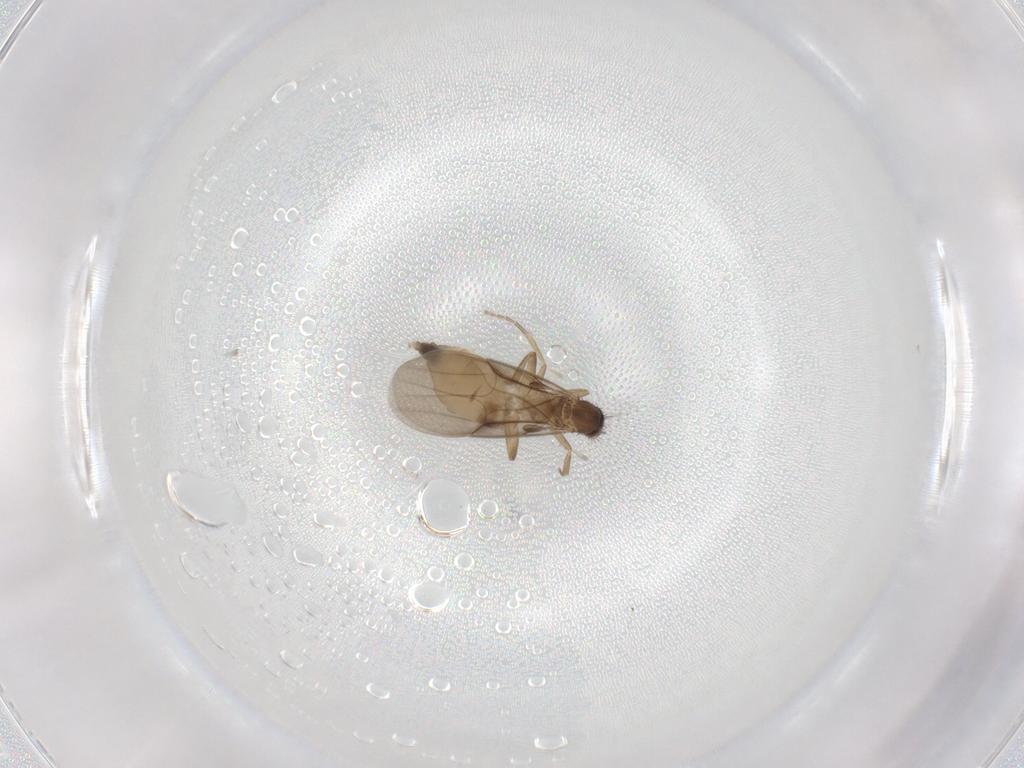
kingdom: Animalia
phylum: Arthropoda
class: Insecta
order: Diptera
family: Phoridae
